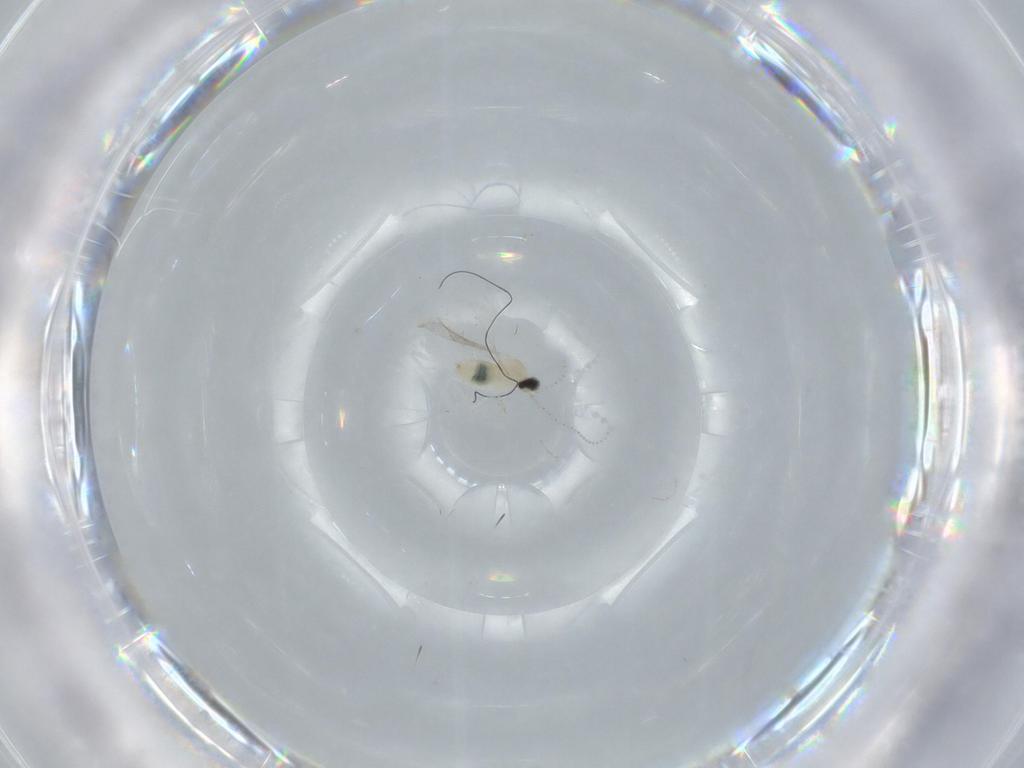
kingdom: Animalia
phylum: Arthropoda
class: Insecta
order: Diptera
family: Cecidomyiidae
